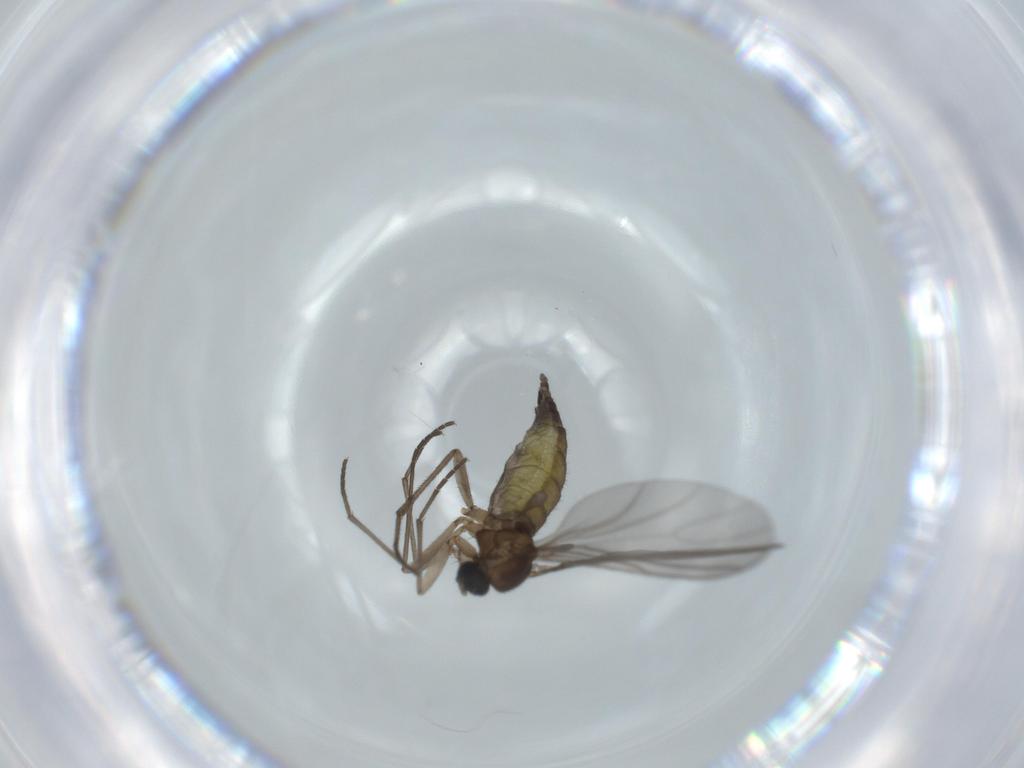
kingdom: Animalia
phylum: Arthropoda
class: Insecta
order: Diptera
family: Sciaridae
